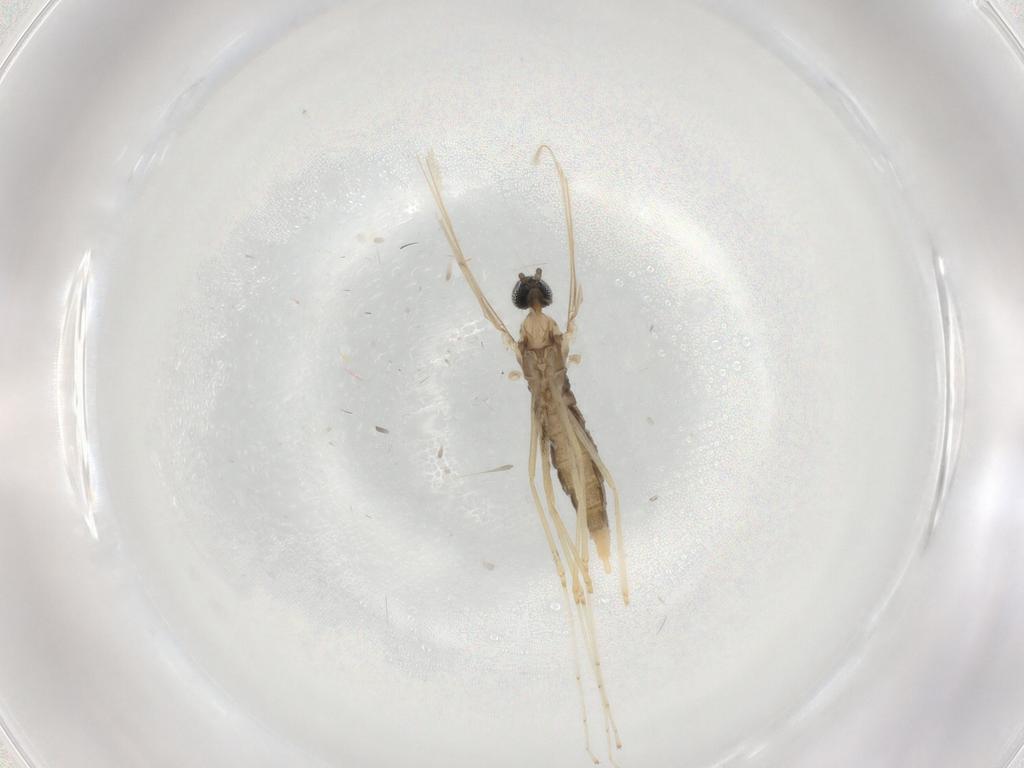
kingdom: Animalia
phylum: Arthropoda
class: Insecta
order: Diptera
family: Cecidomyiidae
